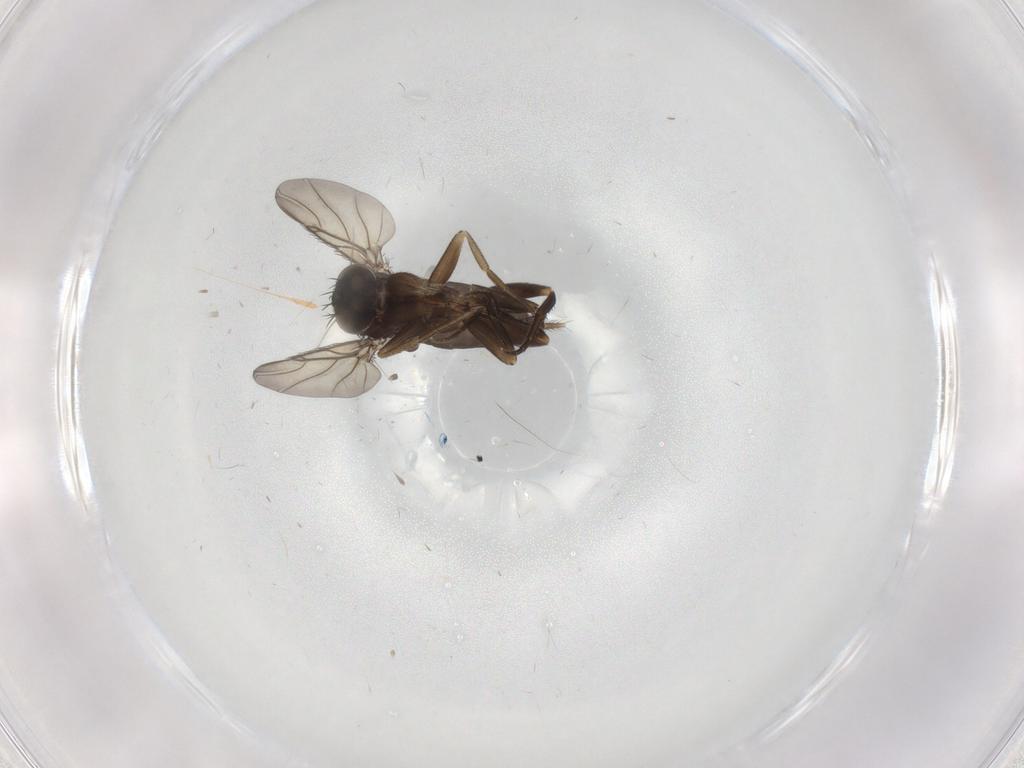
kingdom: Animalia
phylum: Arthropoda
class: Insecta
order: Diptera
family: Phoridae
